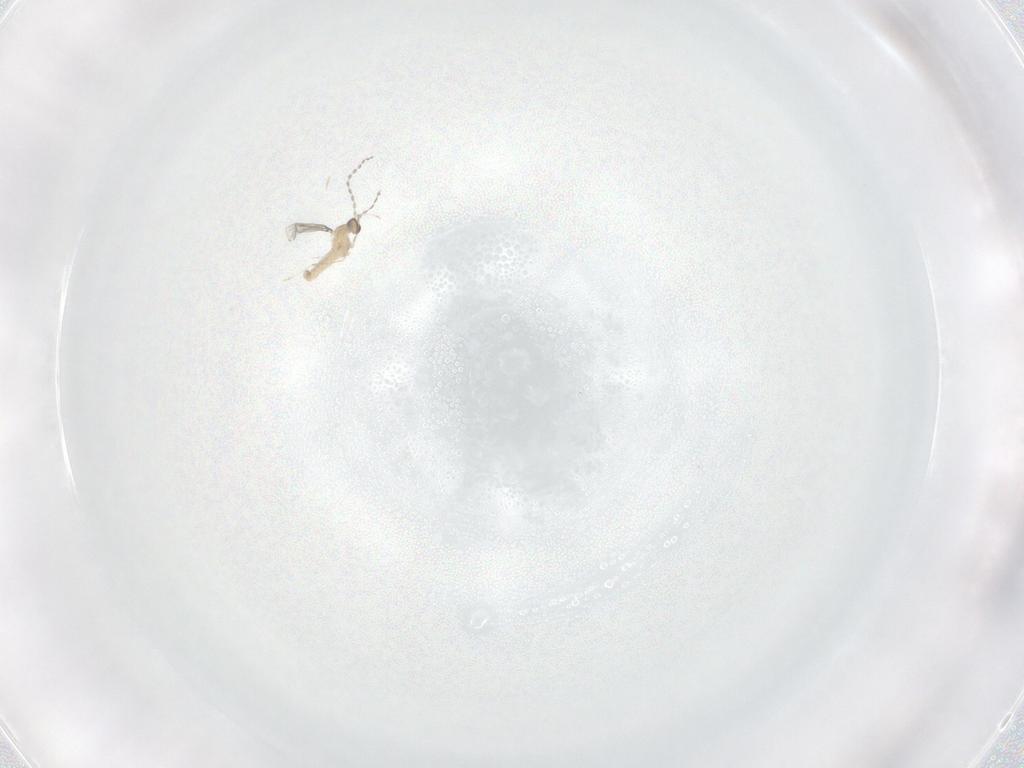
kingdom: Animalia
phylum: Arthropoda
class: Insecta
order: Diptera
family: Cecidomyiidae
